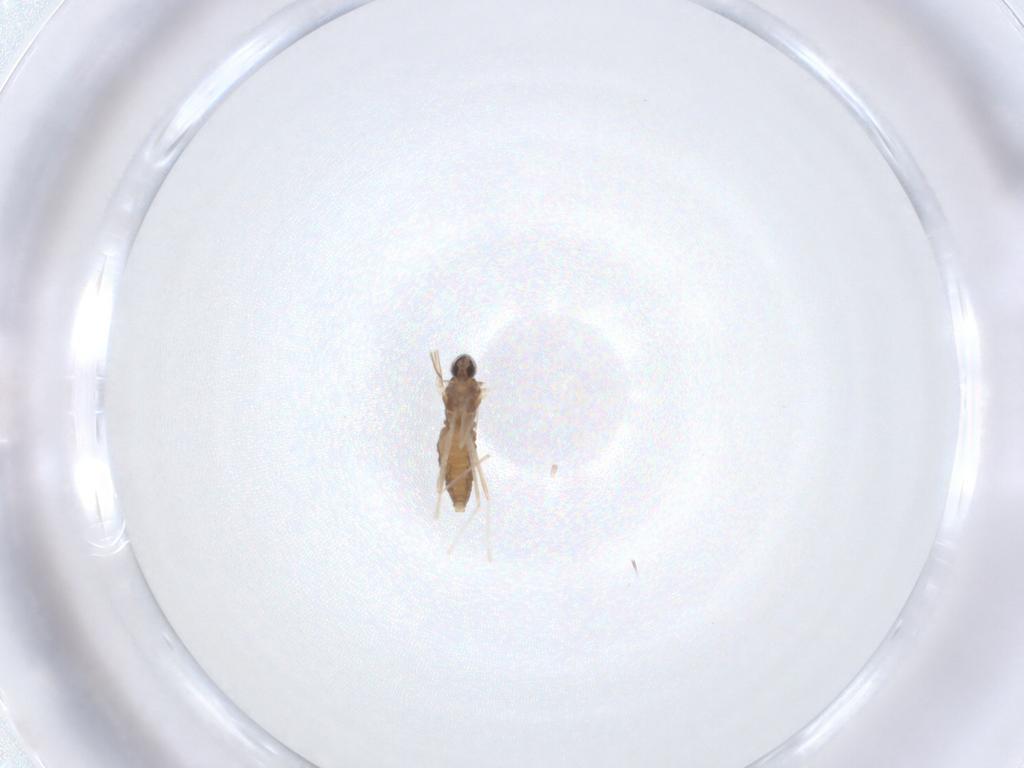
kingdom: Animalia
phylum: Arthropoda
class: Insecta
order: Diptera
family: Cecidomyiidae
